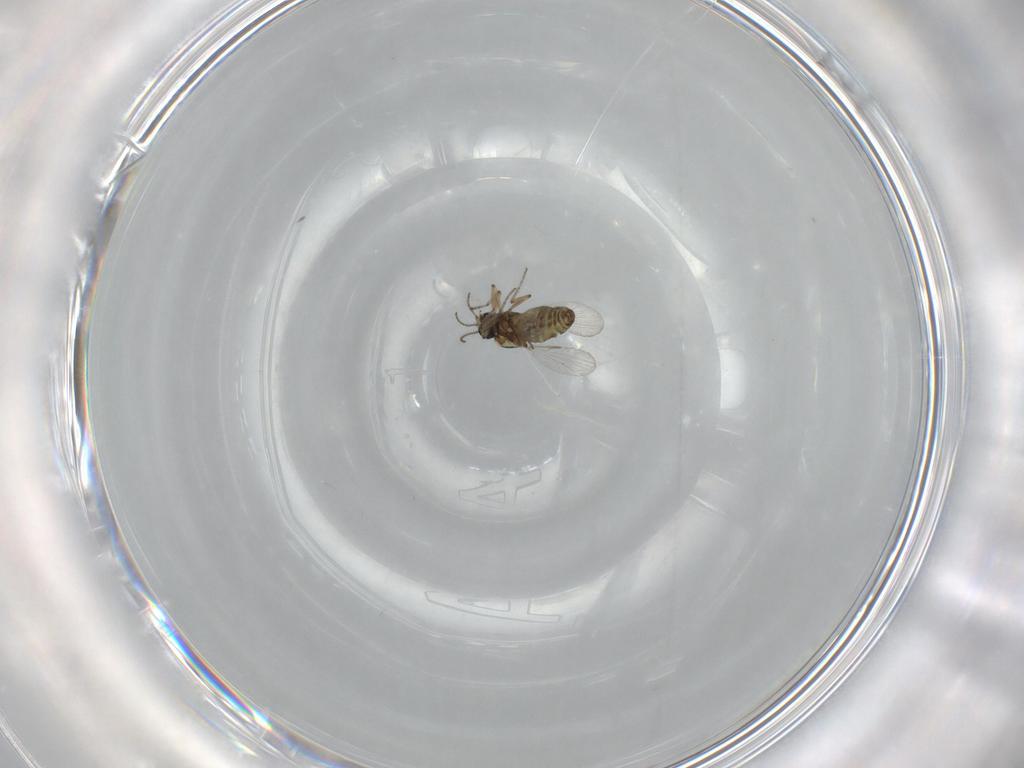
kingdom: Animalia
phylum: Arthropoda
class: Insecta
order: Diptera
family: Ceratopogonidae
